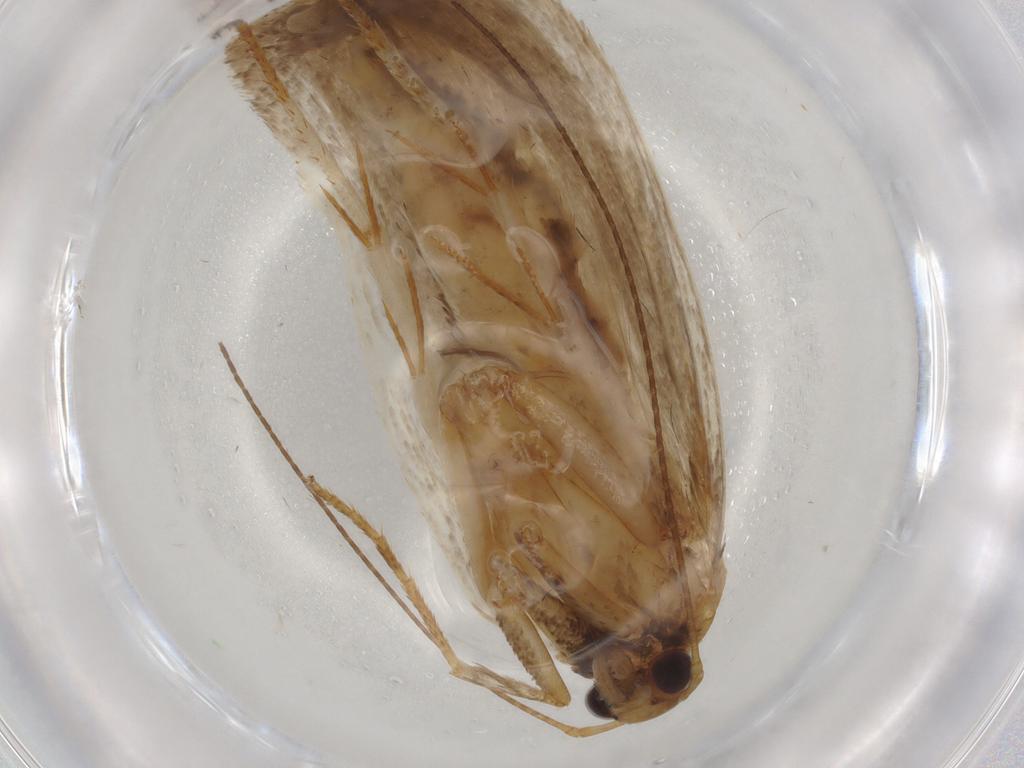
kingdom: Animalia
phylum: Arthropoda
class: Insecta
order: Lepidoptera
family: Gelechiidae
